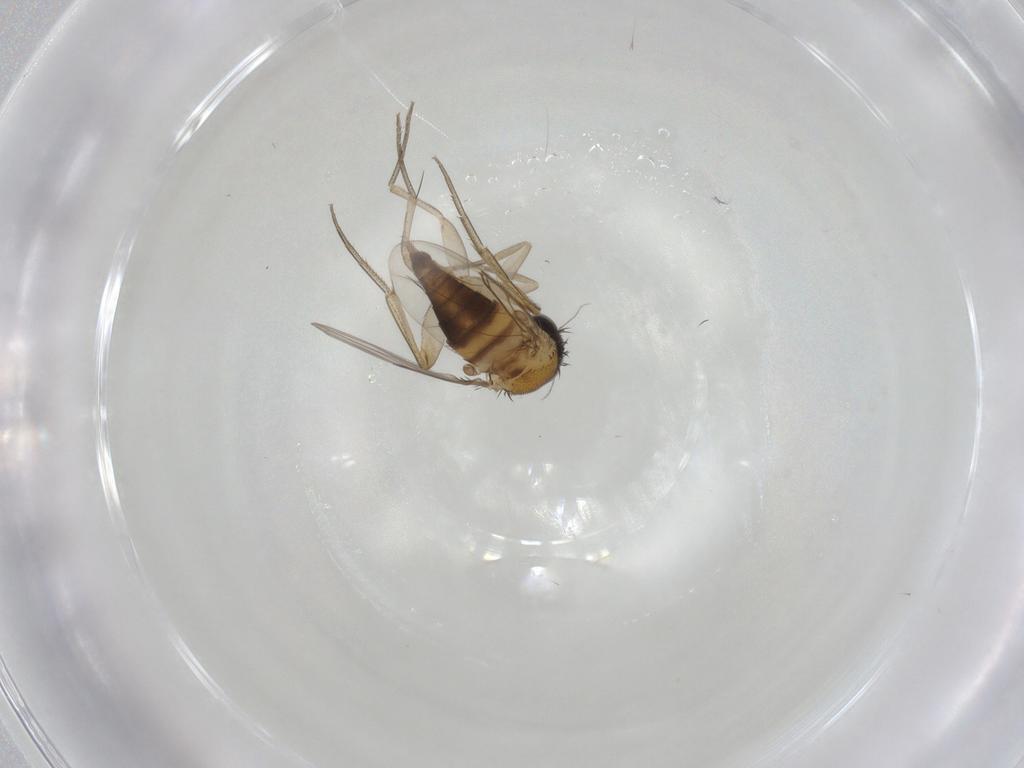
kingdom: Animalia
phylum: Arthropoda
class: Insecta
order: Diptera
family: Phoridae
